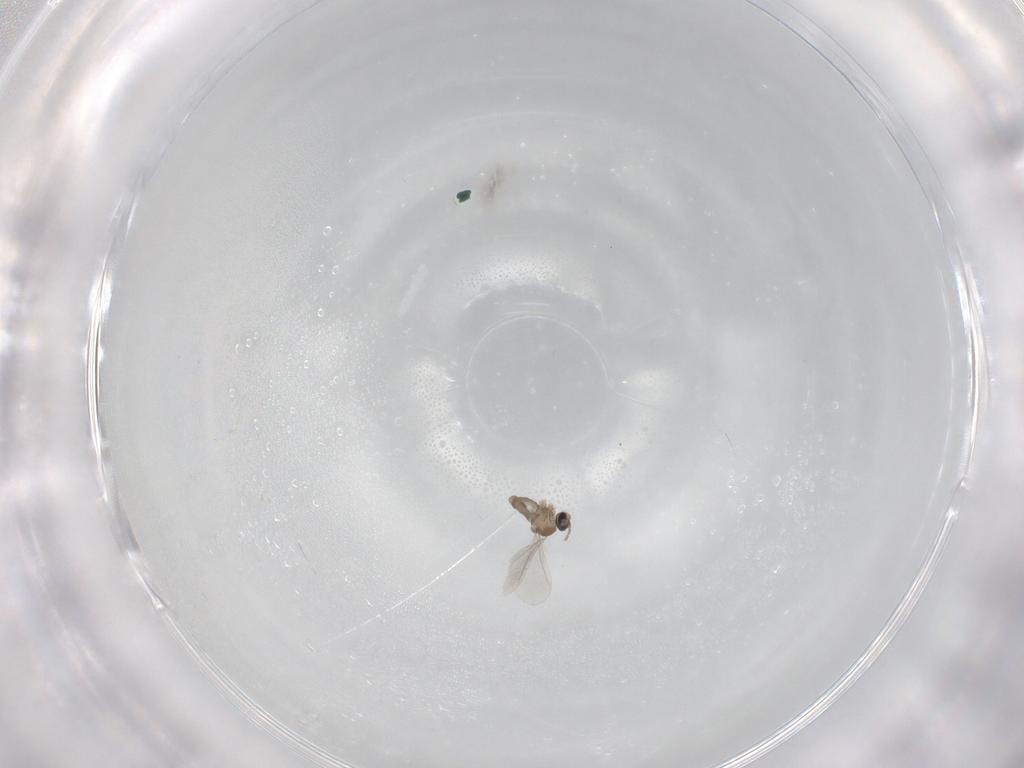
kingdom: Animalia
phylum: Arthropoda
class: Insecta
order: Diptera
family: Cecidomyiidae
